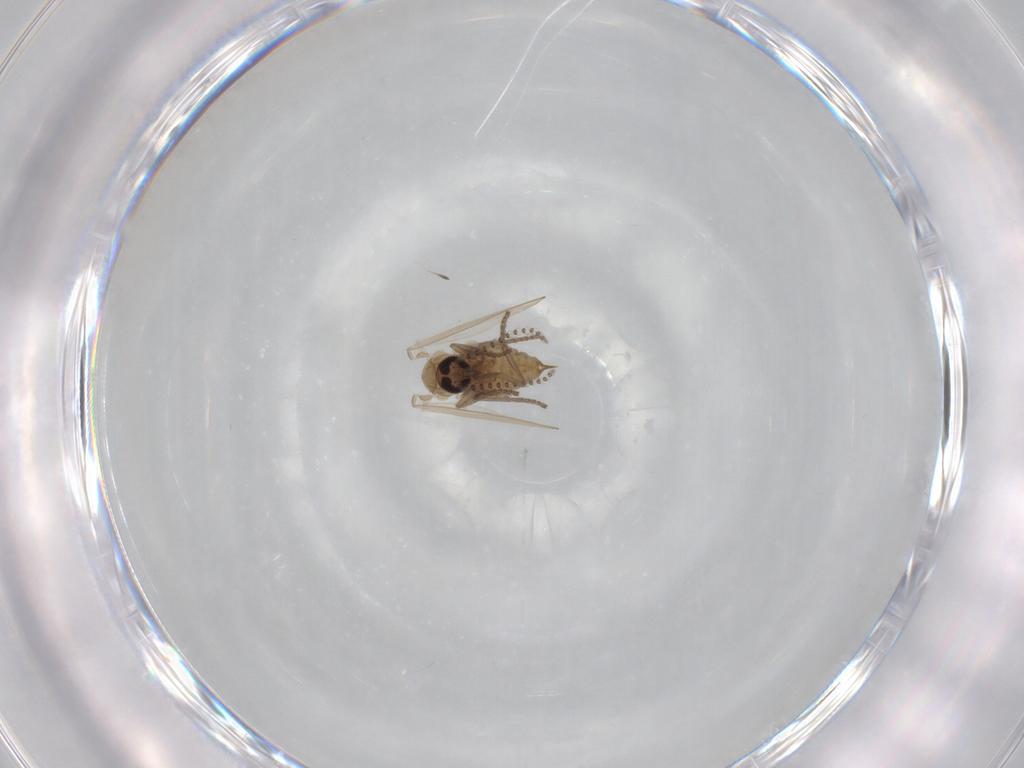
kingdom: Animalia
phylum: Arthropoda
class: Insecta
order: Diptera
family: Psychodidae
